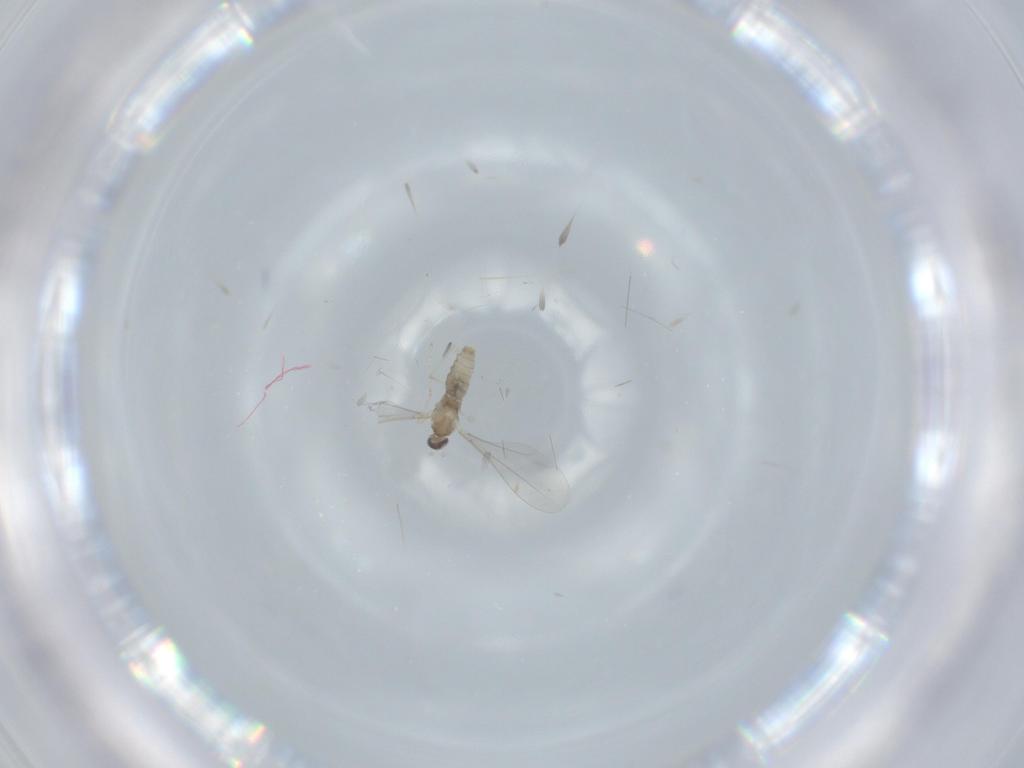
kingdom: Animalia
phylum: Arthropoda
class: Insecta
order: Diptera
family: Cecidomyiidae
